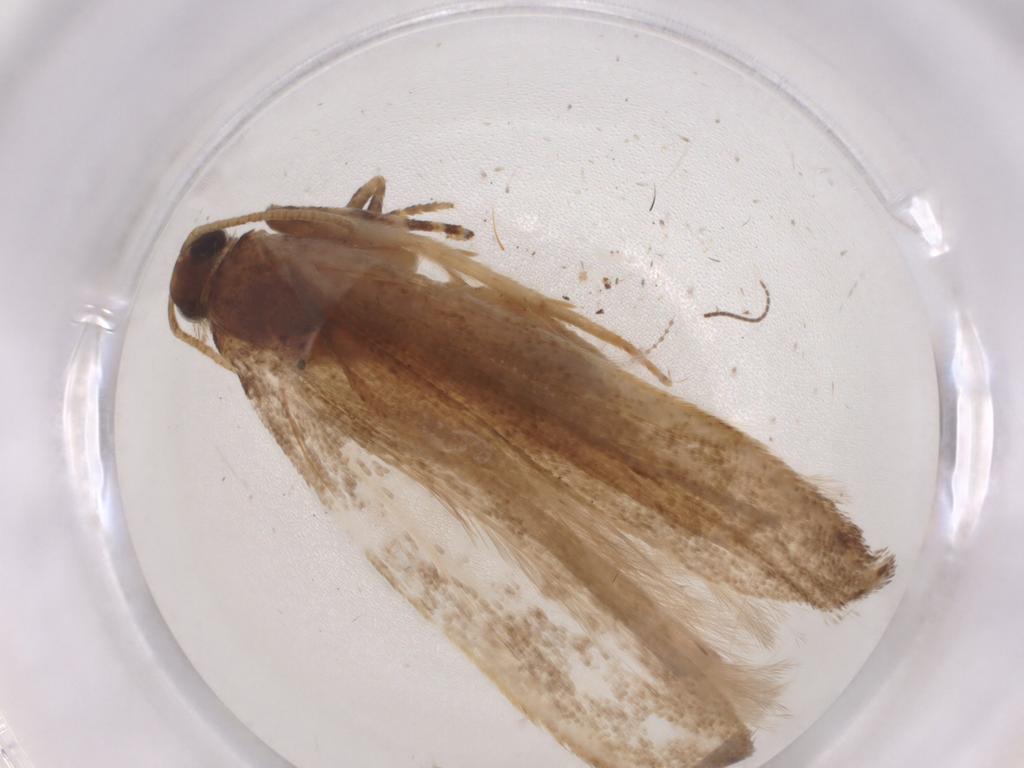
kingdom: Animalia
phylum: Arthropoda
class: Insecta
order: Lepidoptera
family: Gelechiidae
